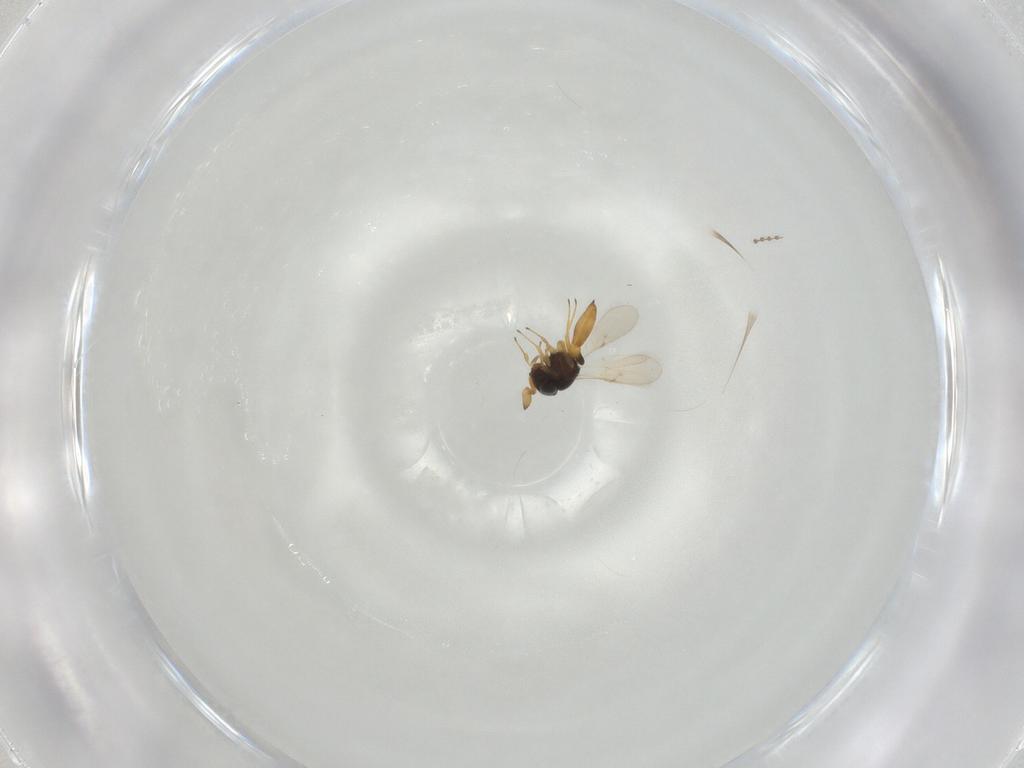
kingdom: Animalia
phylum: Arthropoda
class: Insecta
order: Hymenoptera
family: Scelionidae
